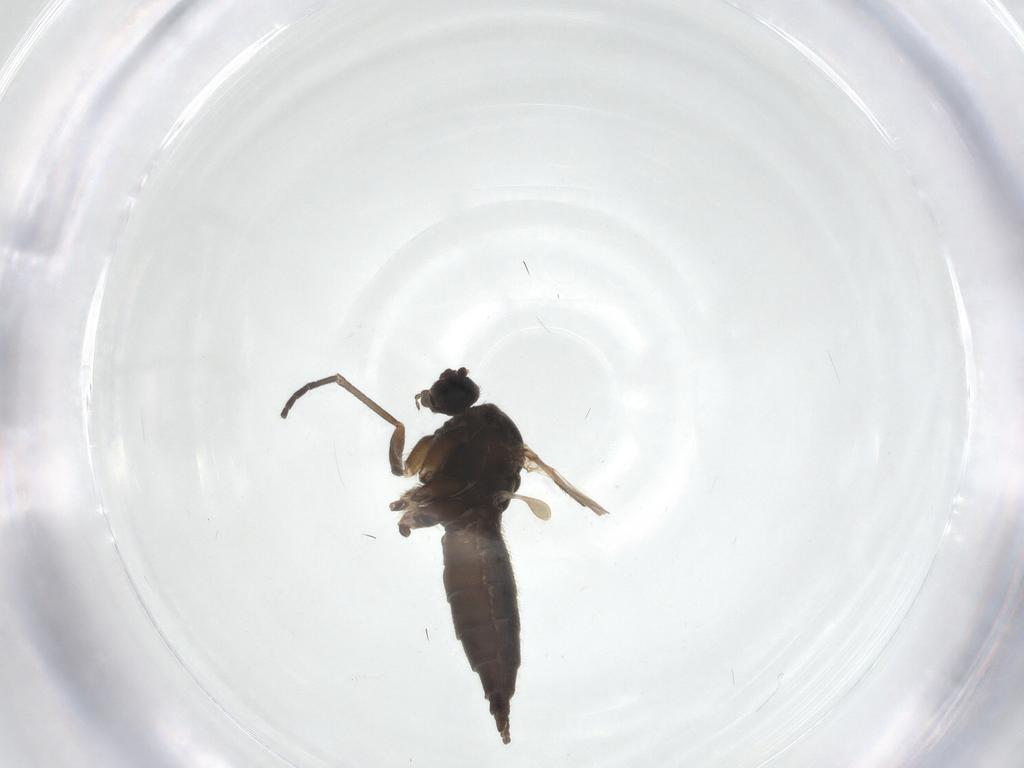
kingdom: Animalia
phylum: Arthropoda
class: Insecta
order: Diptera
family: Sciaridae
